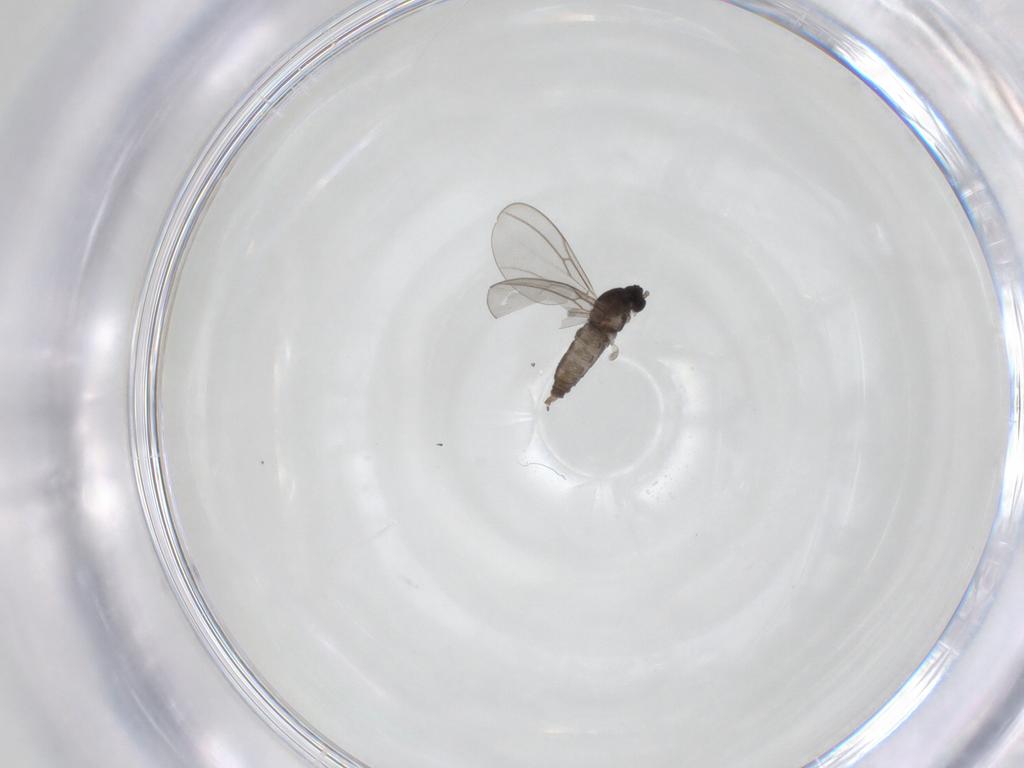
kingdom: Animalia
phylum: Arthropoda
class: Insecta
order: Diptera
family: Cecidomyiidae
